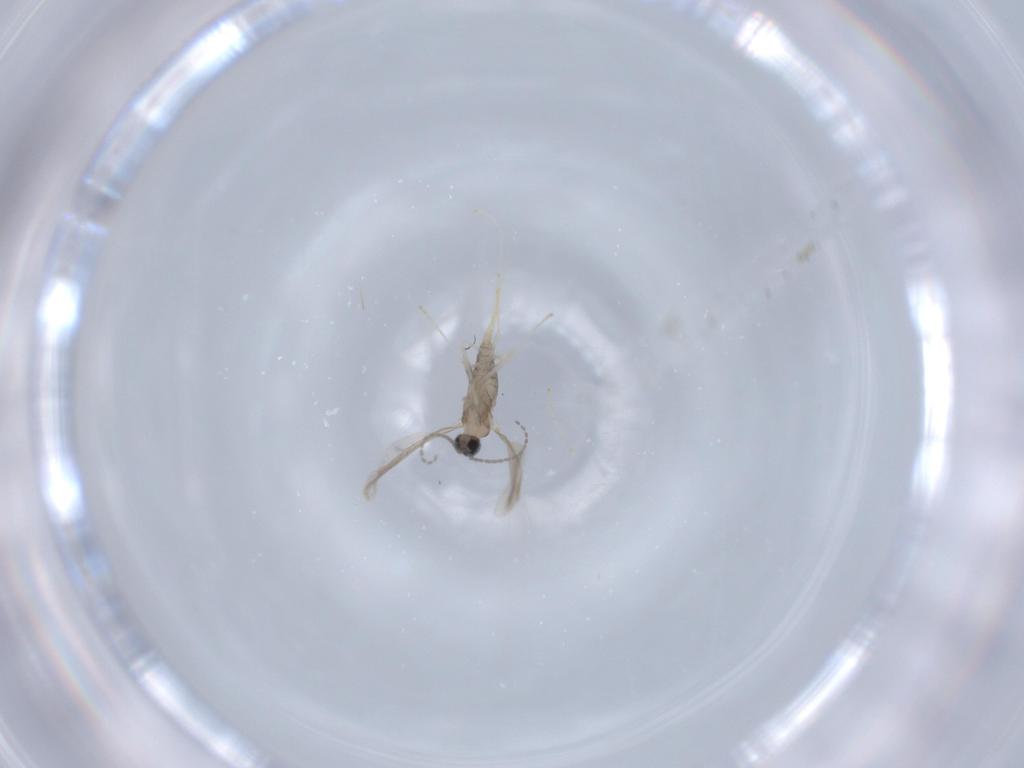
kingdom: Animalia
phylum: Arthropoda
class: Insecta
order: Diptera
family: Cecidomyiidae
